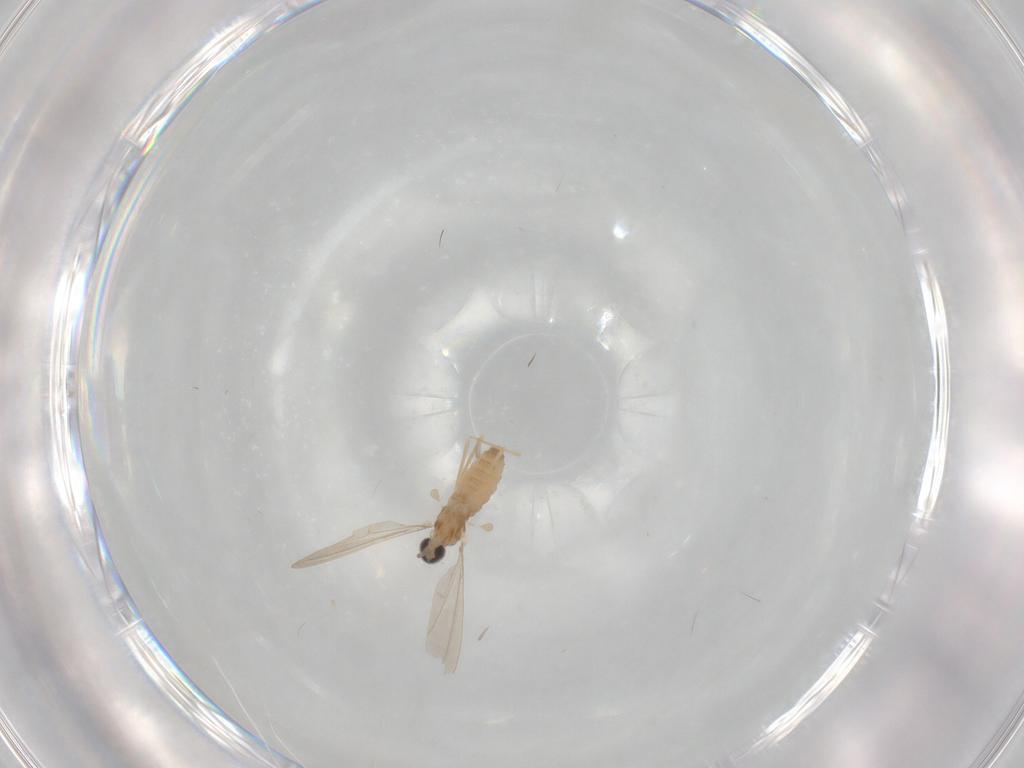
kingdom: Animalia
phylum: Arthropoda
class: Insecta
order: Diptera
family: Cecidomyiidae
